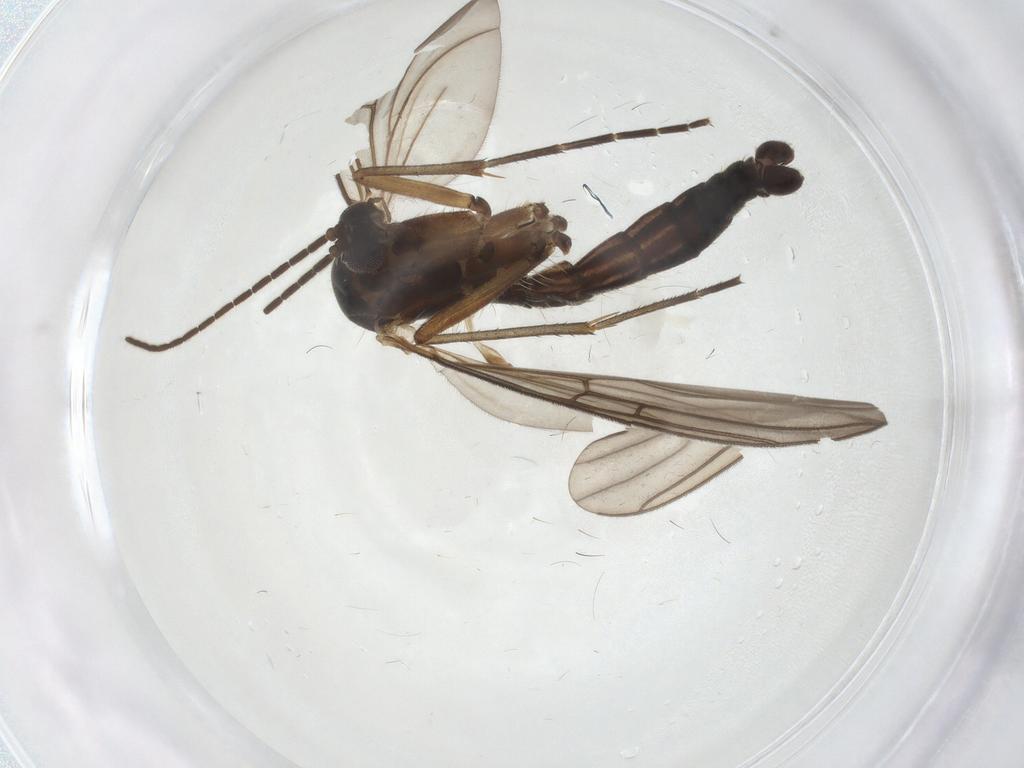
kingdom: Animalia
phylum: Arthropoda
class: Insecta
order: Diptera
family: Mycetophilidae
